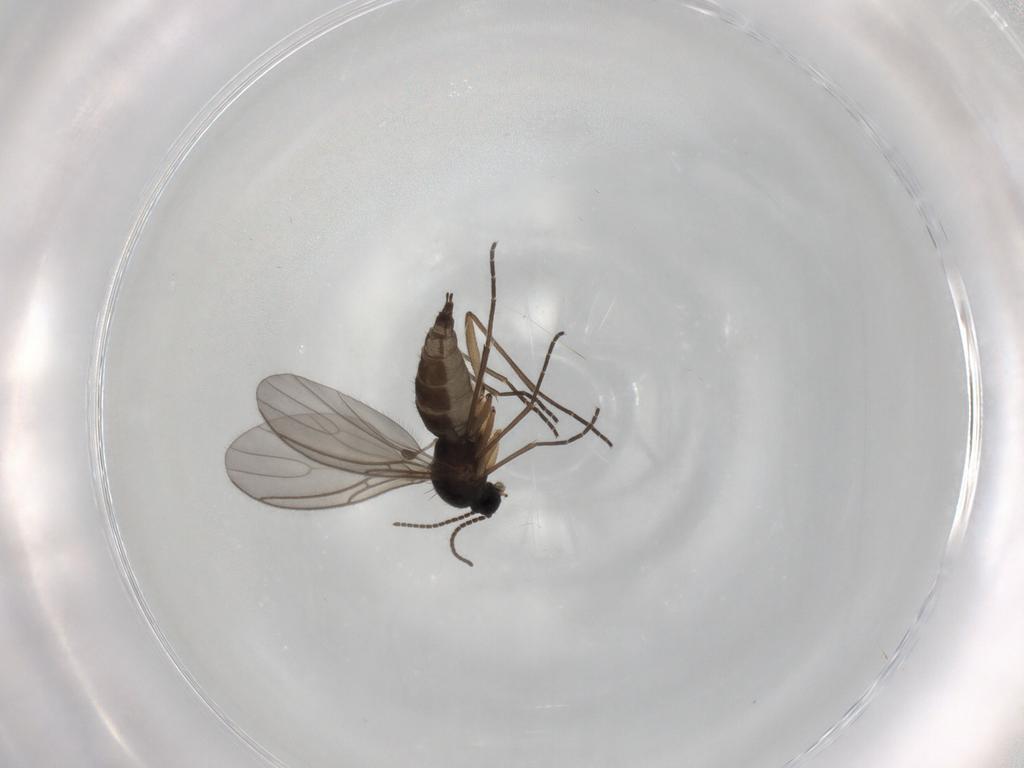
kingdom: Animalia
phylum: Arthropoda
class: Insecta
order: Diptera
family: Sciaridae
